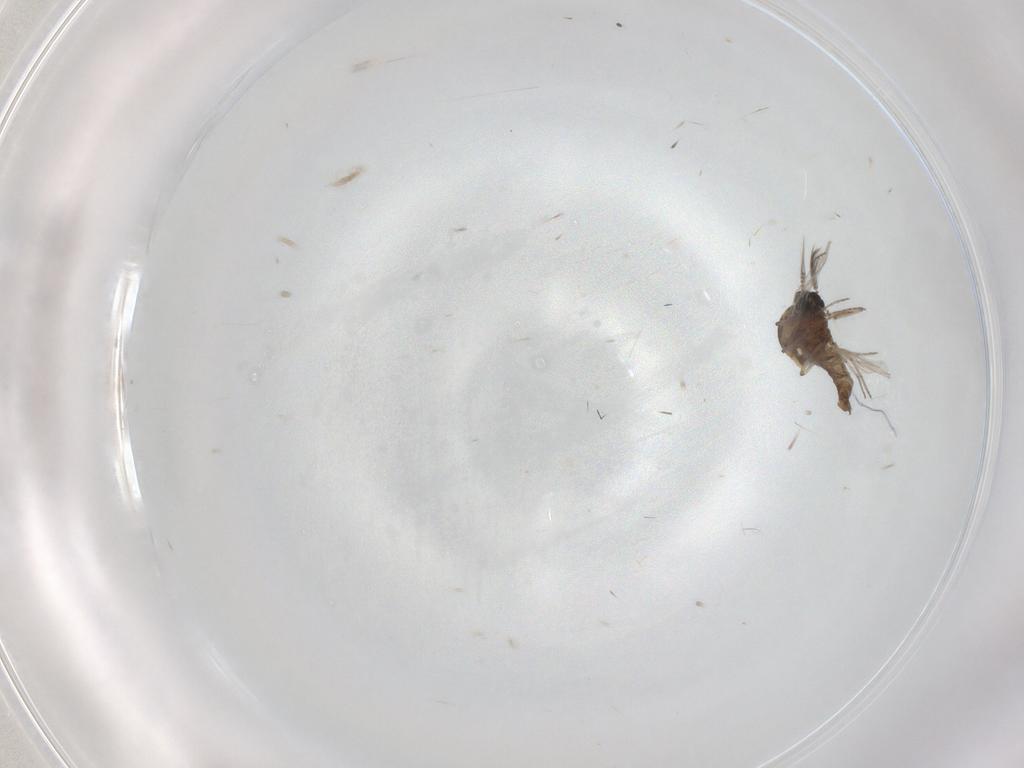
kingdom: Animalia
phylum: Arthropoda
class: Insecta
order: Diptera
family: Ceratopogonidae
